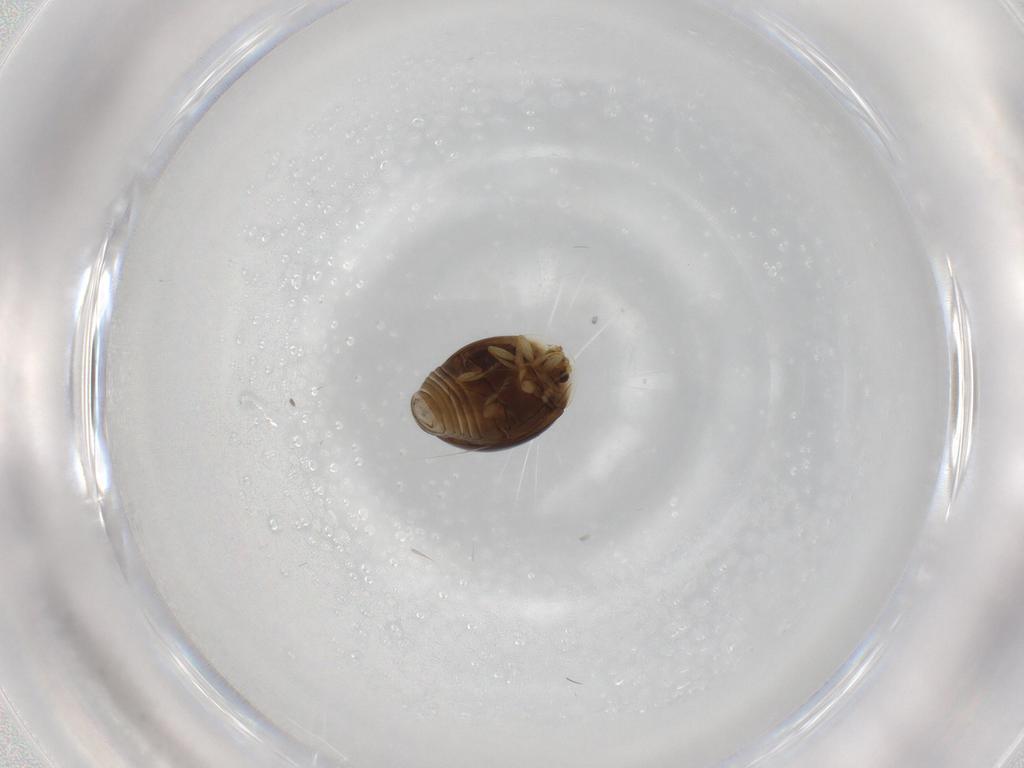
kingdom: Animalia
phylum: Arthropoda
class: Insecta
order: Coleoptera
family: Corylophidae
